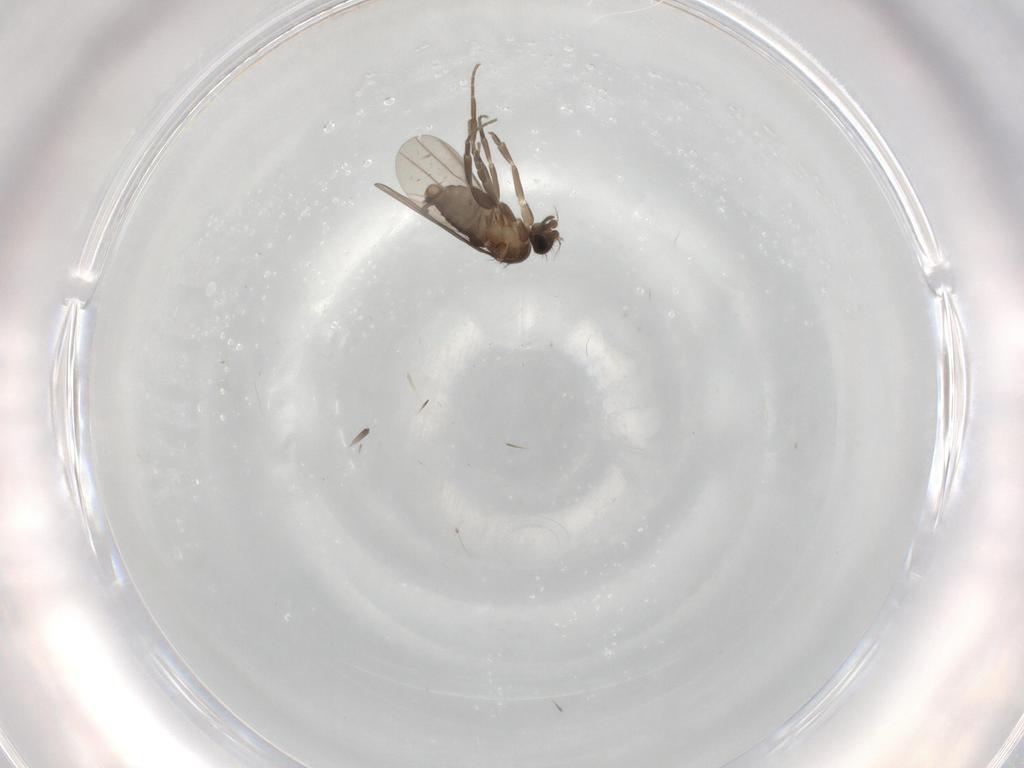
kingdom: Animalia
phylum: Arthropoda
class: Insecta
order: Diptera
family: Phoridae
